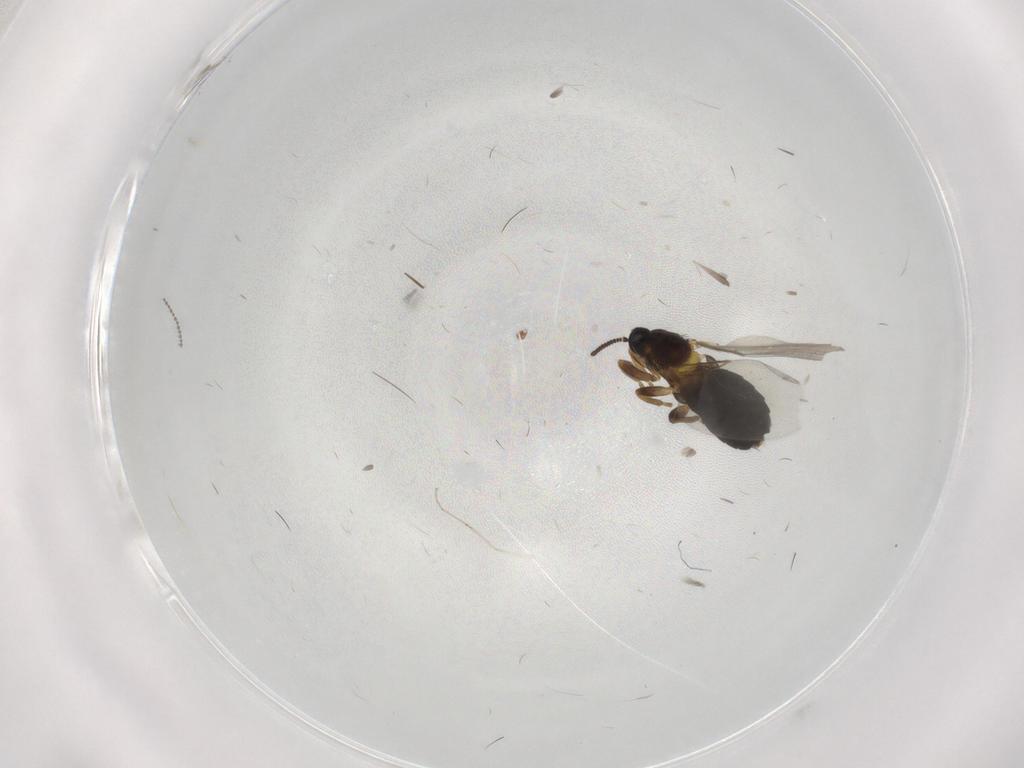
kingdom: Animalia
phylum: Arthropoda
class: Insecta
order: Diptera
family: Scatopsidae
